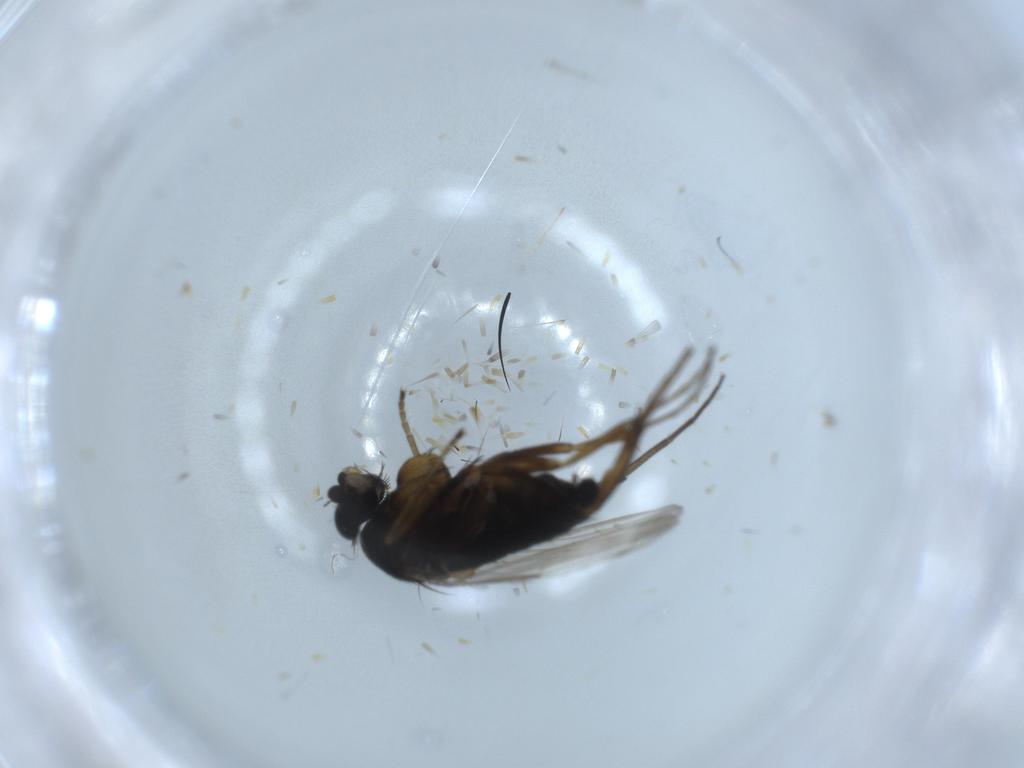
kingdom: Animalia
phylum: Arthropoda
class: Insecta
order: Diptera
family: Phoridae
